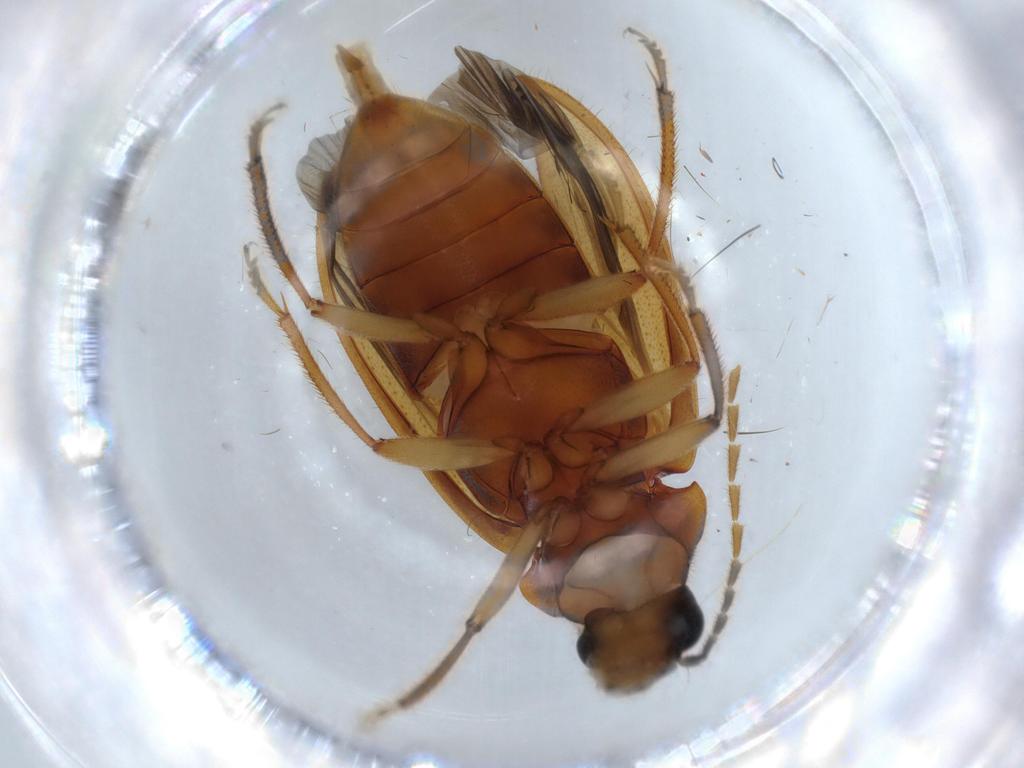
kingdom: Animalia
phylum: Arthropoda
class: Insecta
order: Coleoptera
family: Ptilodactylidae
